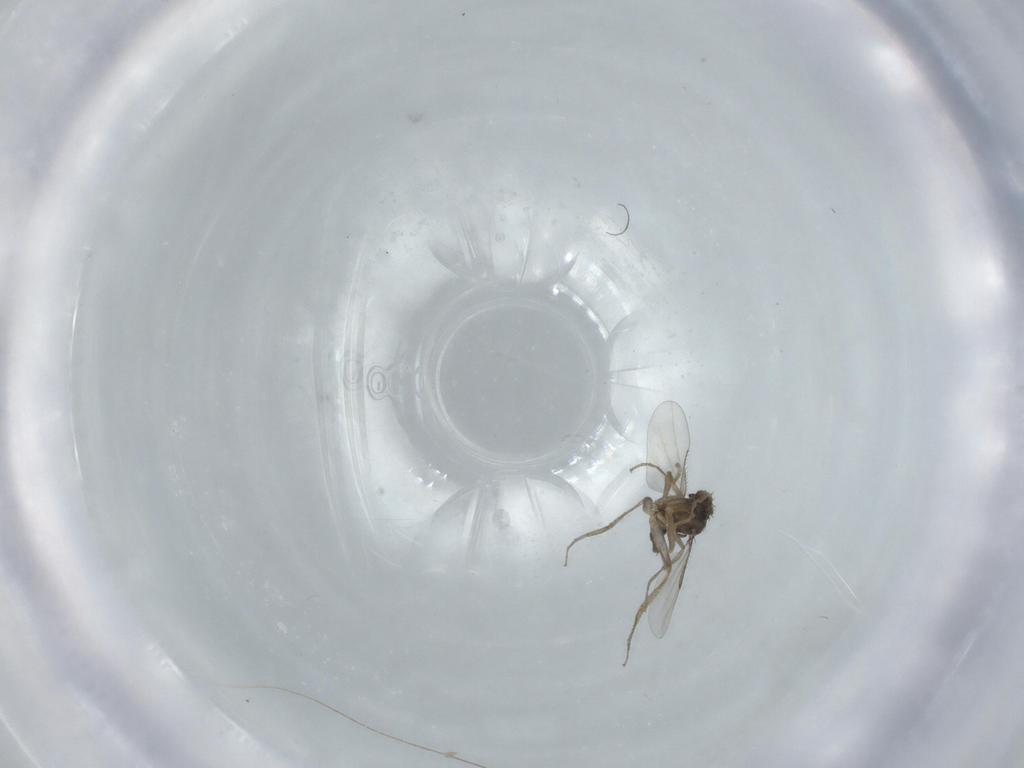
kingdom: Animalia
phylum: Arthropoda
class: Insecta
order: Diptera
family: Phoridae
